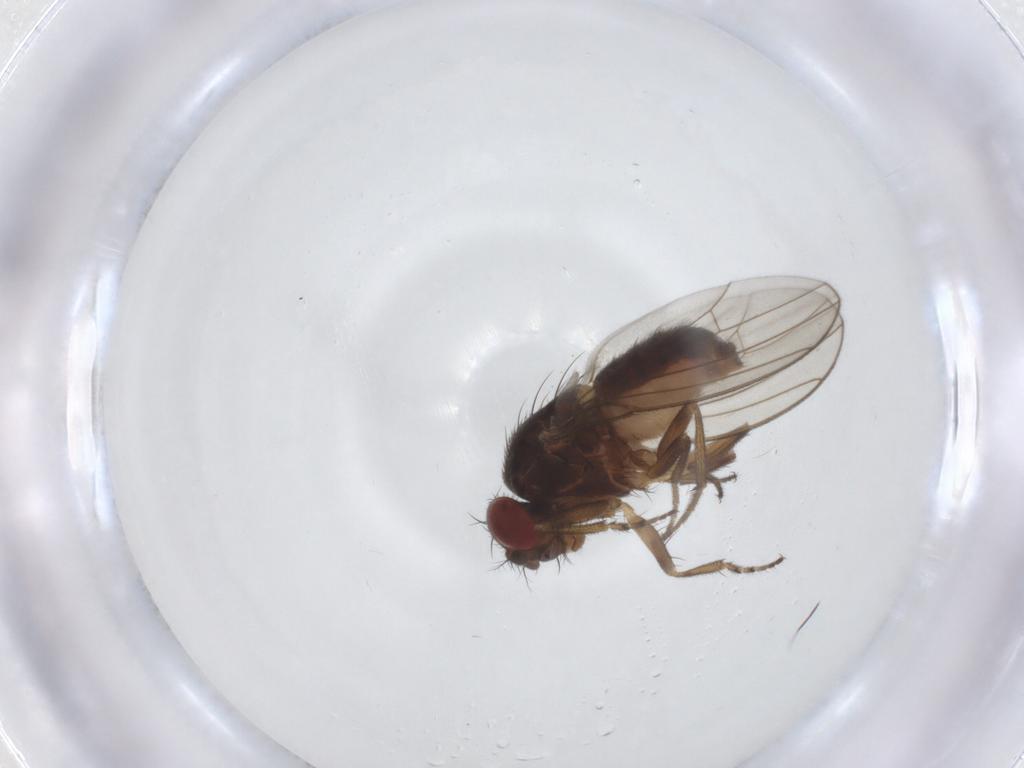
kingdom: Animalia
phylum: Arthropoda
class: Insecta
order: Diptera
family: Drosophilidae
